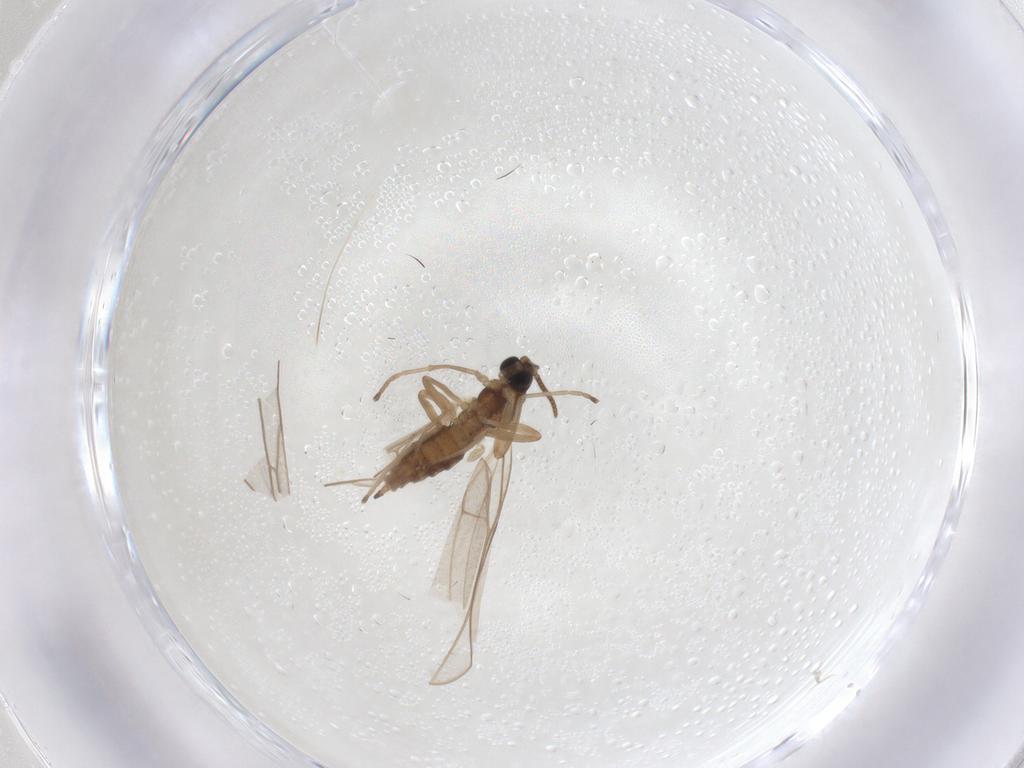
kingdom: Animalia
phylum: Arthropoda
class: Insecta
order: Diptera
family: Cecidomyiidae
